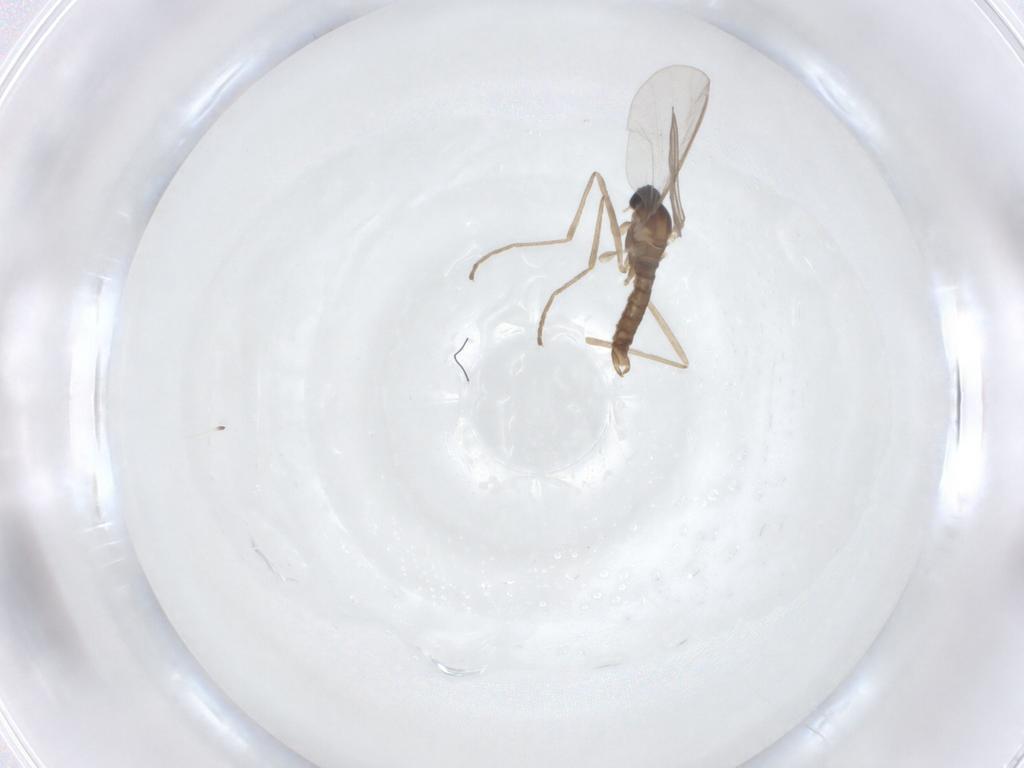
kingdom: Animalia
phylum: Arthropoda
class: Insecta
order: Diptera
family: Cecidomyiidae
